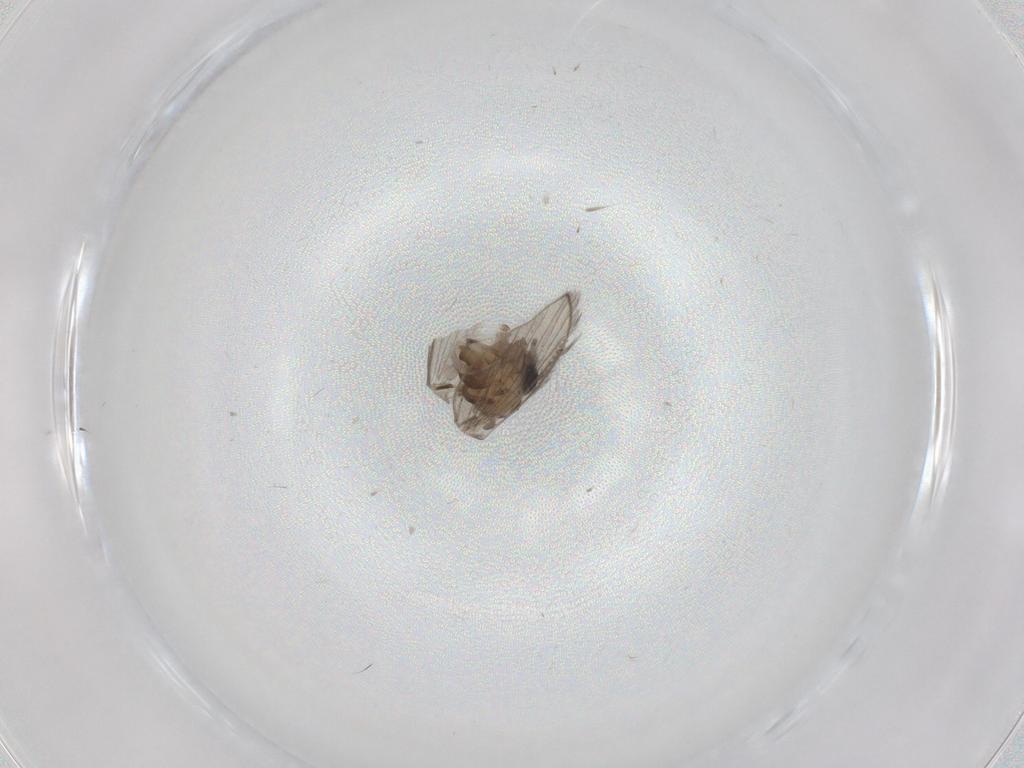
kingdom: Animalia
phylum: Arthropoda
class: Insecta
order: Diptera
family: Psychodidae
